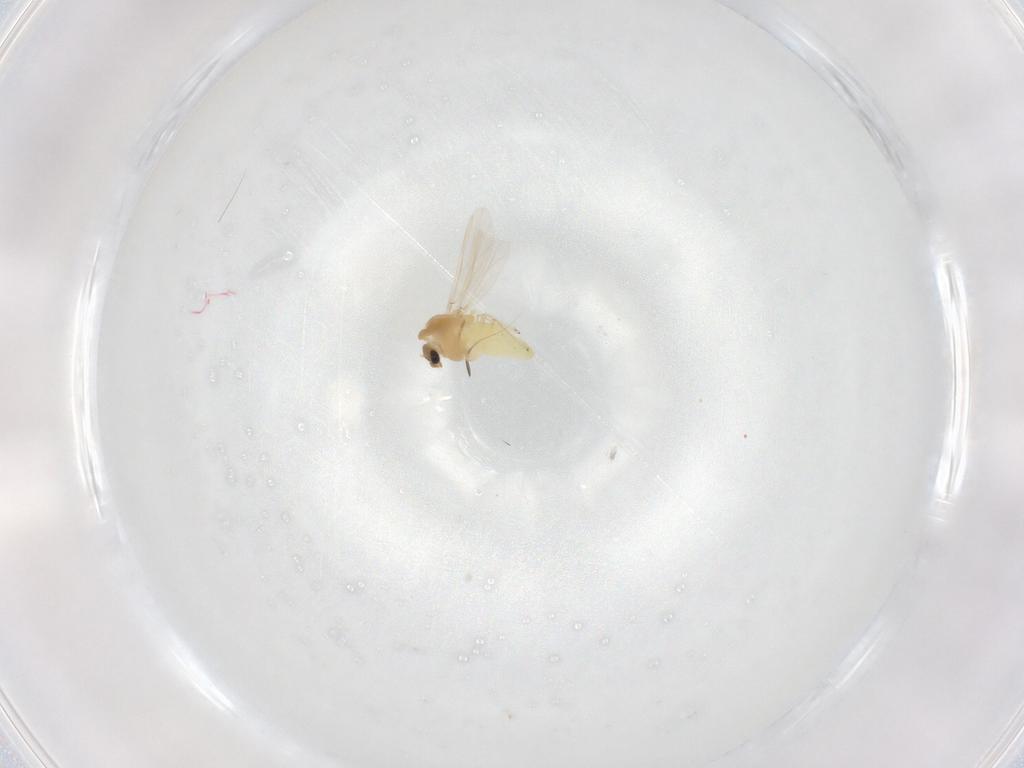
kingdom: Animalia
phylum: Arthropoda
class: Insecta
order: Diptera
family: Chironomidae
